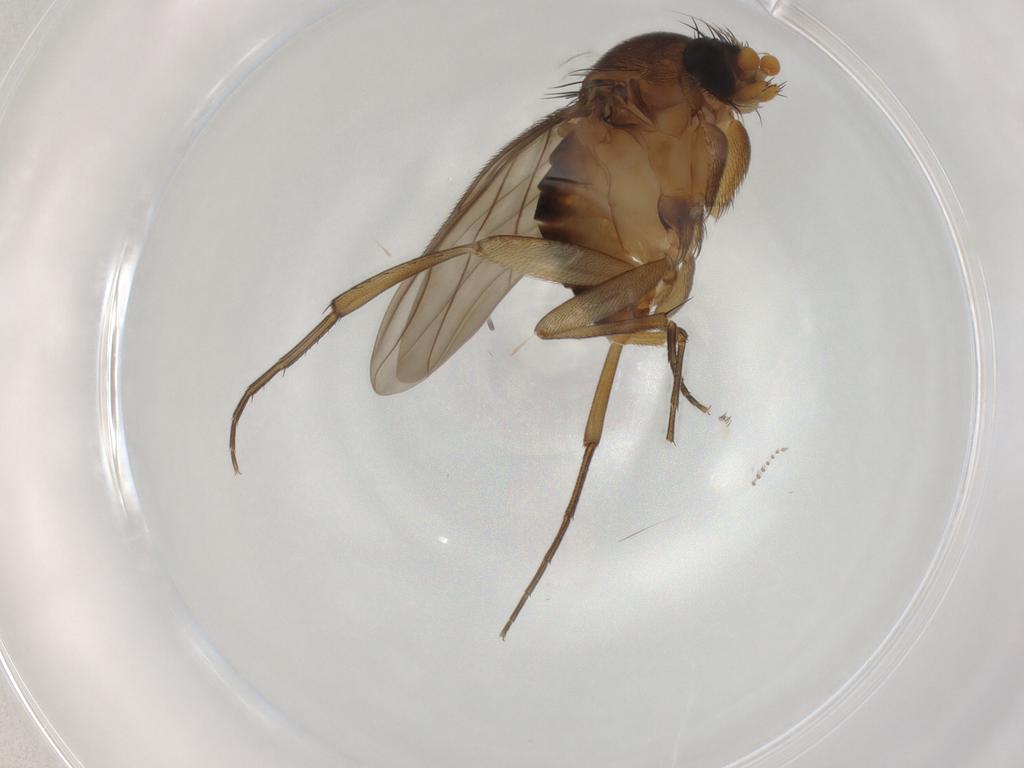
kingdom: Animalia
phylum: Arthropoda
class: Insecta
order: Diptera
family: Phoridae
